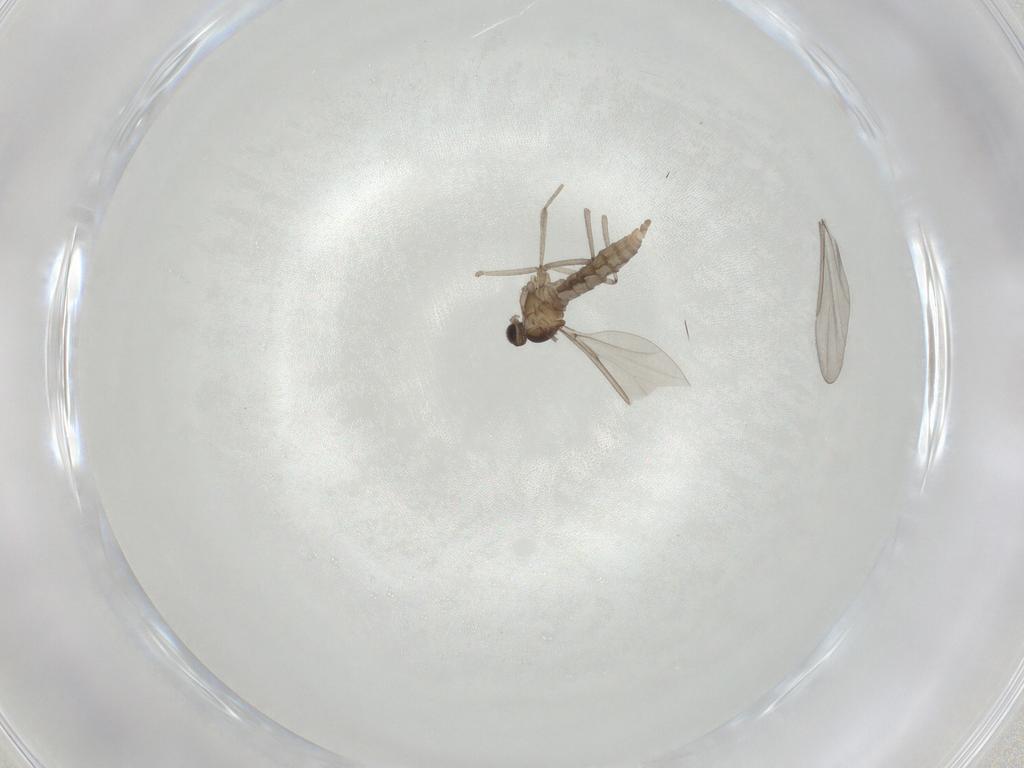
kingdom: Animalia
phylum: Arthropoda
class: Insecta
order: Diptera
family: Cecidomyiidae
